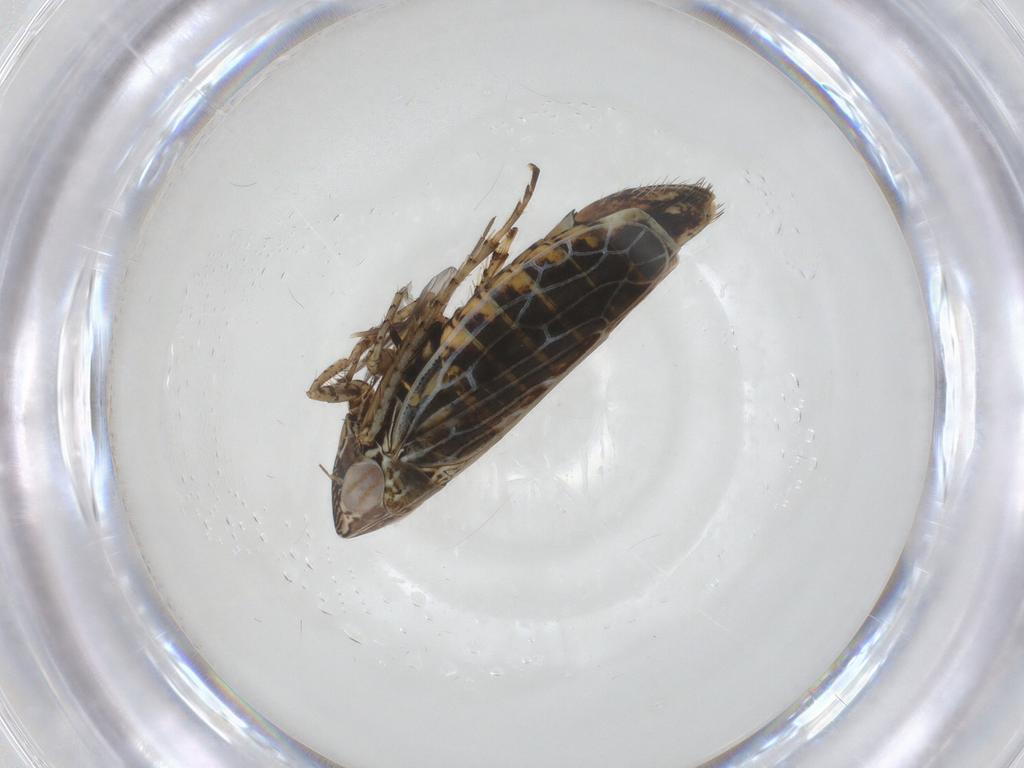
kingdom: Animalia
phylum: Arthropoda
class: Insecta
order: Hemiptera
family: Cicadellidae
